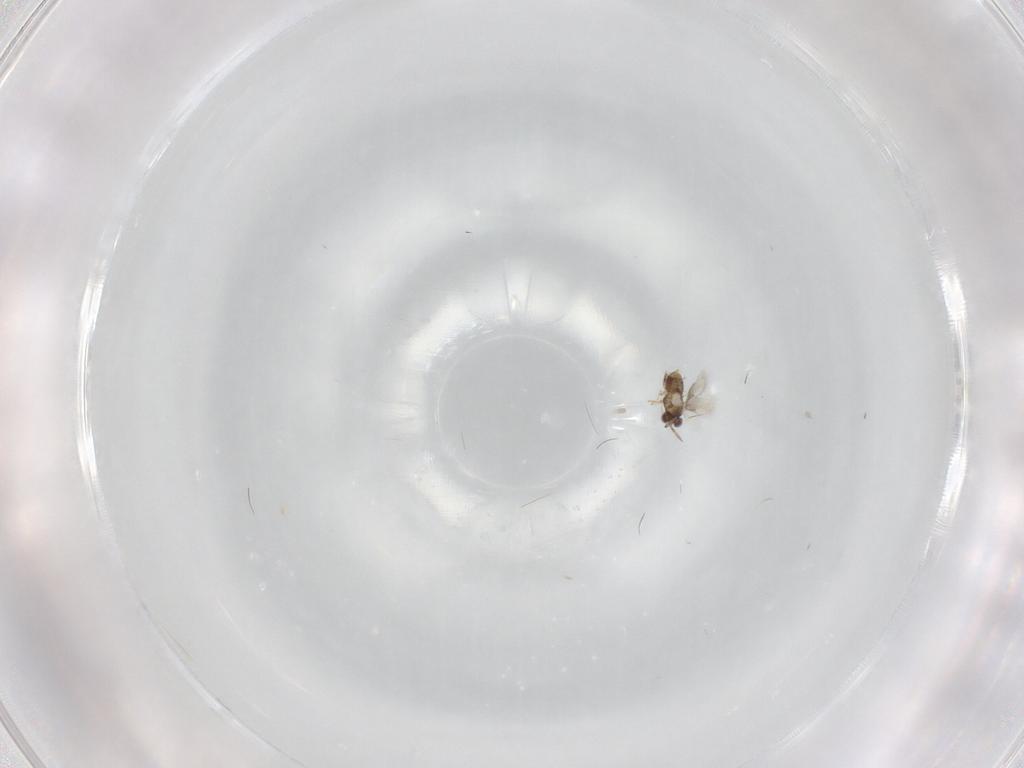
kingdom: Animalia
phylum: Arthropoda
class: Insecta
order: Hymenoptera
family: Aphelinidae
